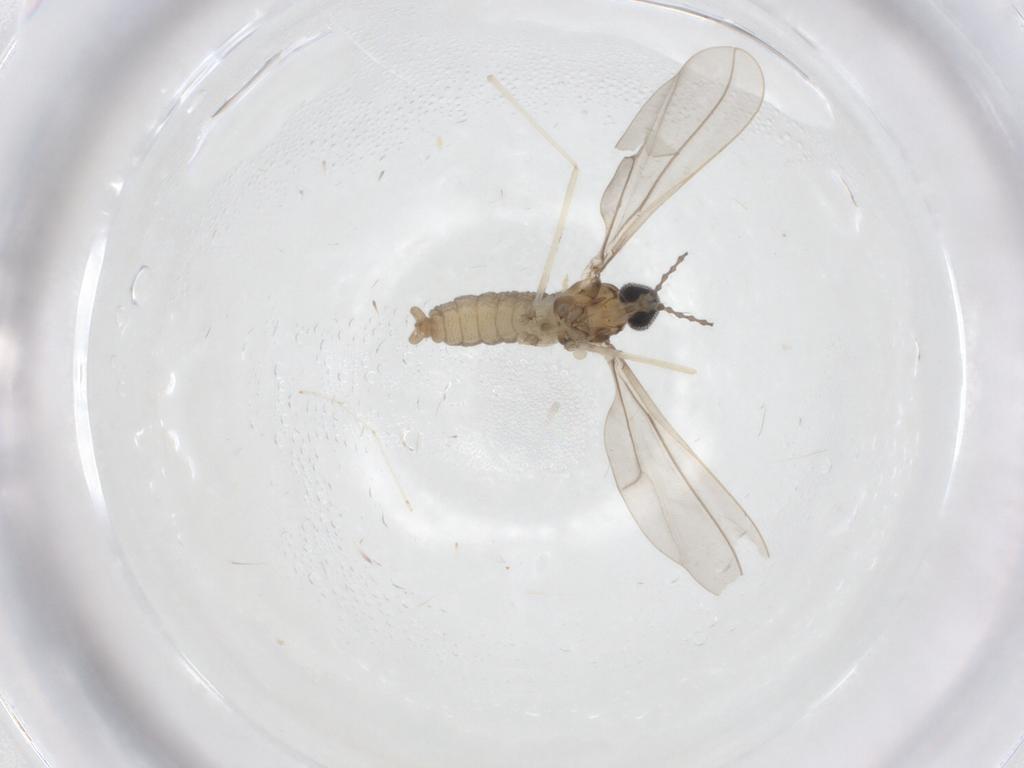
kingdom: Animalia
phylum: Arthropoda
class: Insecta
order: Diptera
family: Cecidomyiidae
